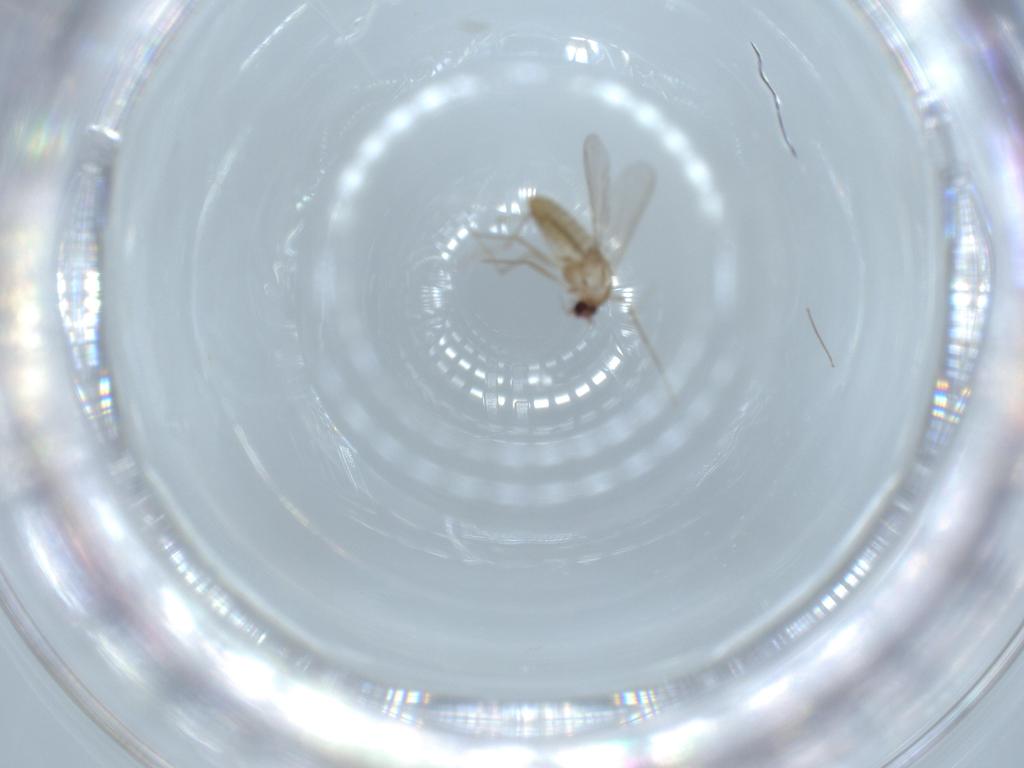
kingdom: Animalia
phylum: Arthropoda
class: Insecta
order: Diptera
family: Chironomidae
